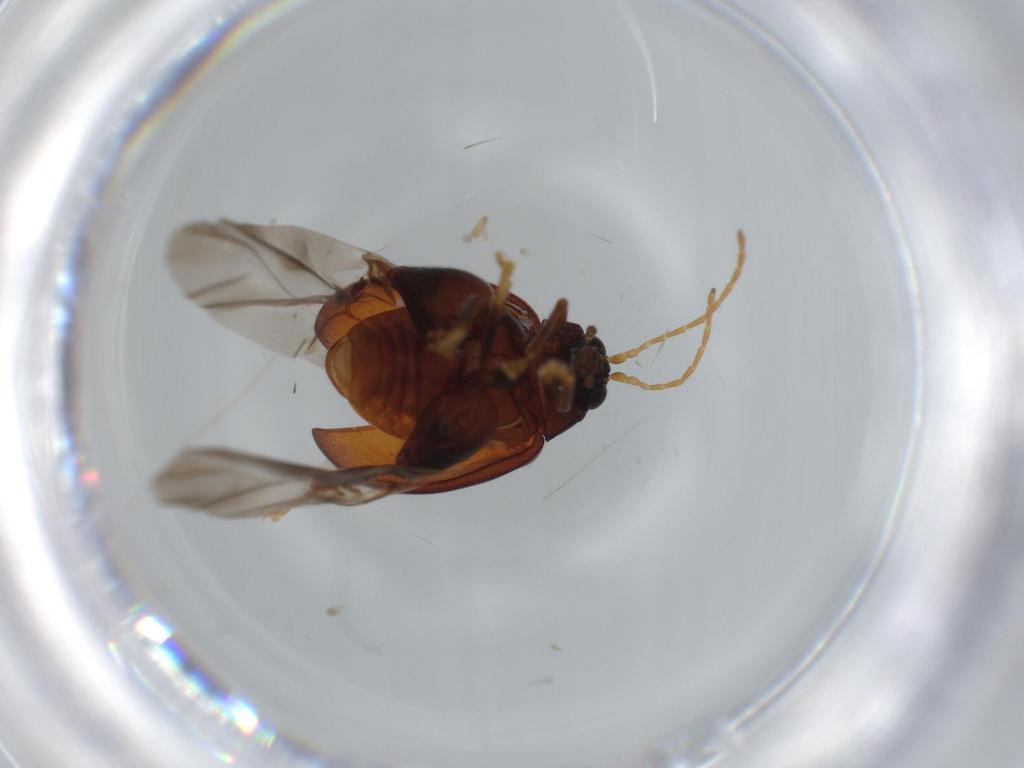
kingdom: Animalia
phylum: Arthropoda
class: Insecta
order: Coleoptera
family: Chrysomelidae
